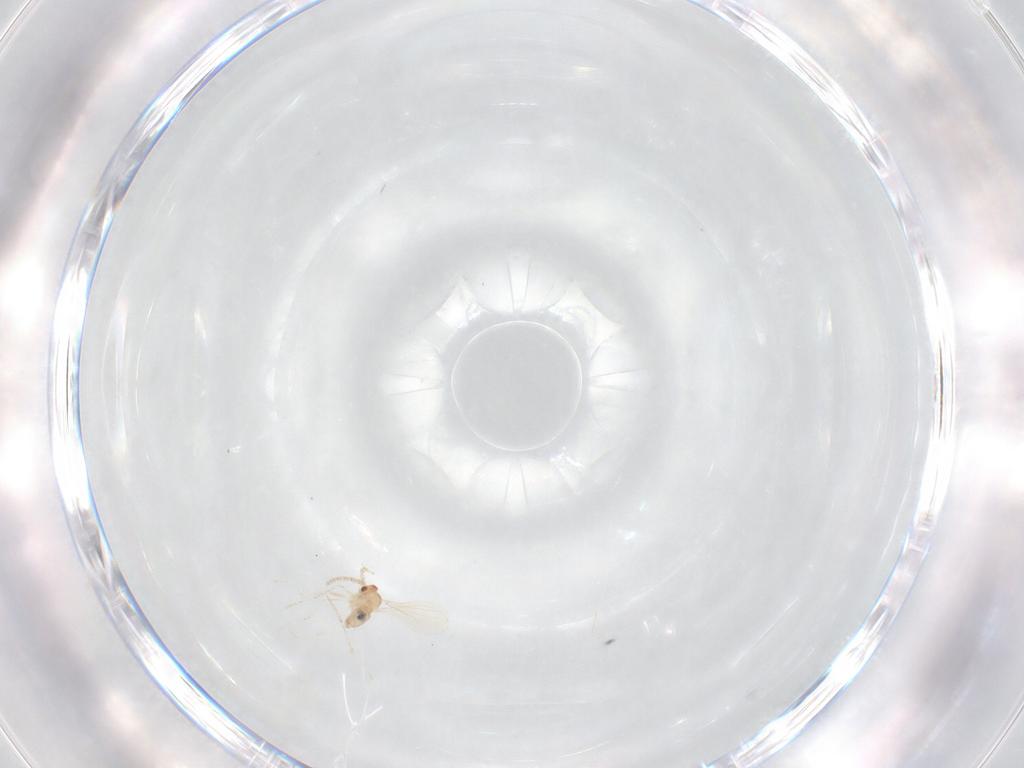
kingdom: Animalia
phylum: Arthropoda
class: Insecta
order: Diptera
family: Cecidomyiidae
